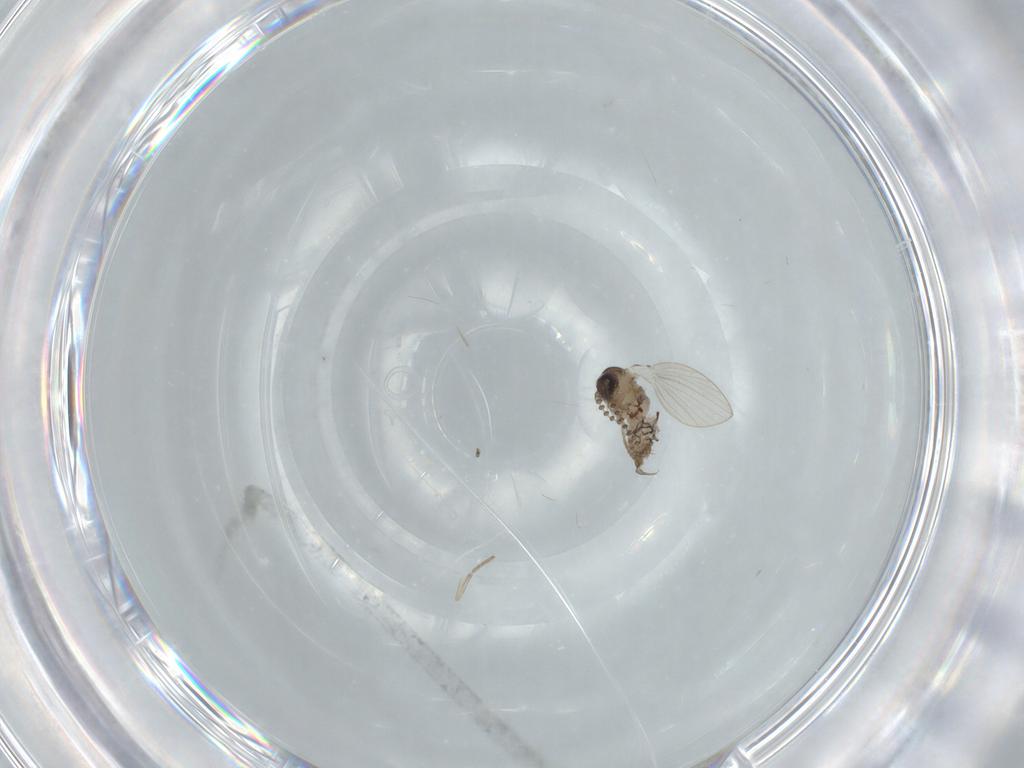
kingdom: Animalia
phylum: Arthropoda
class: Insecta
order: Diptera
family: Psychodidae
